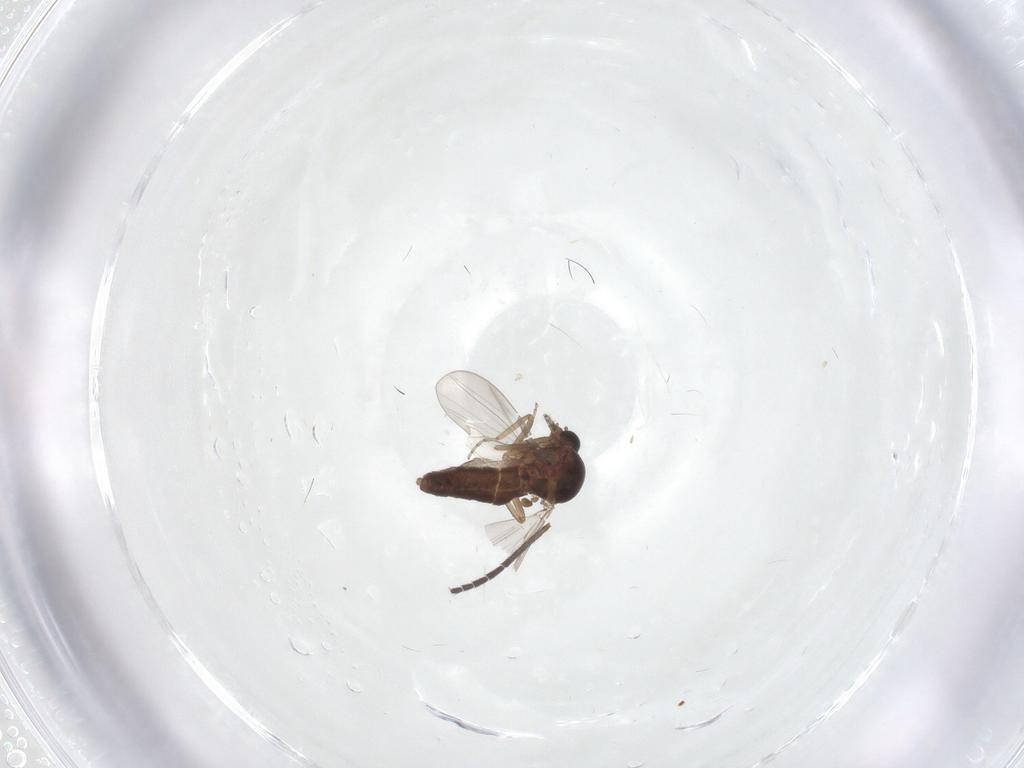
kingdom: Animalia
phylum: Arthropoda
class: Insecta
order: Diptera
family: Ceratopogonidae
